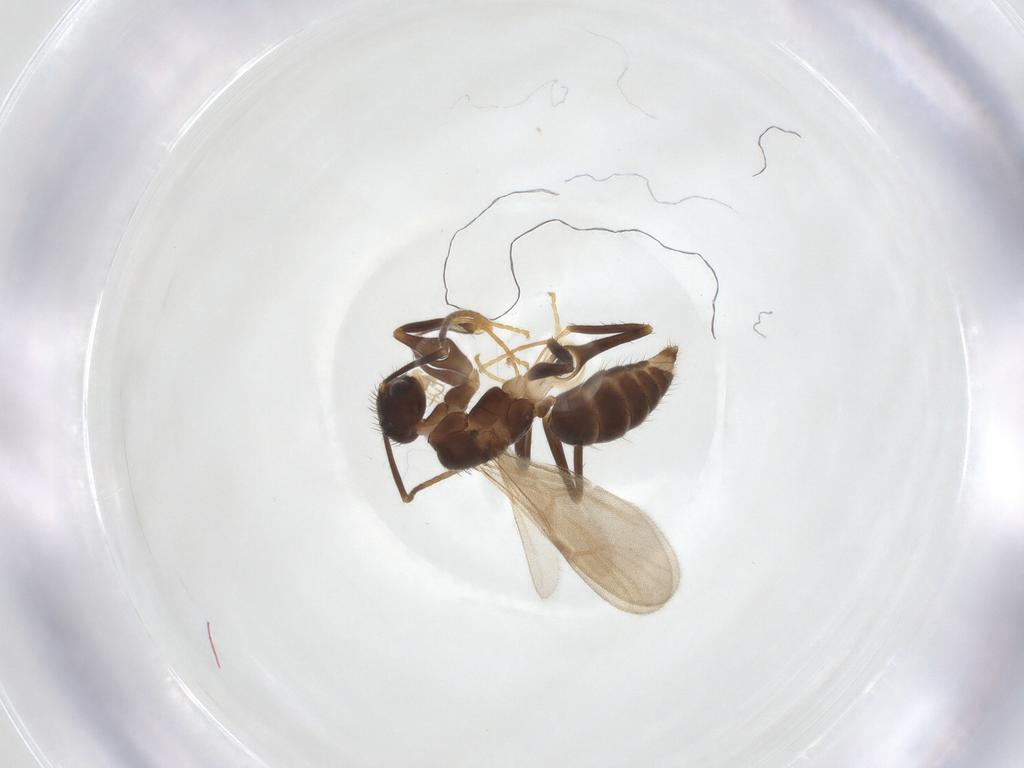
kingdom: Animalia
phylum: Arthropoda
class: Insecta
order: Hymenoptera
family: Formicidae
